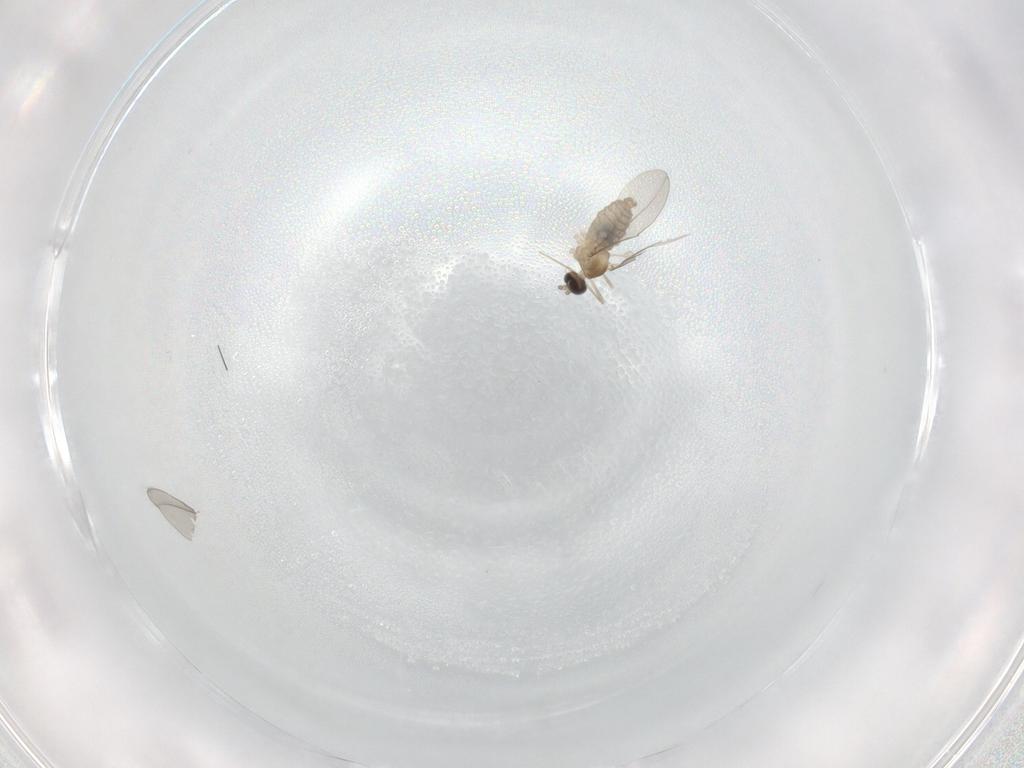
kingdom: Animalia
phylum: Arthropoda
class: Insecta
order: Diptera
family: Cecidomyiidae
